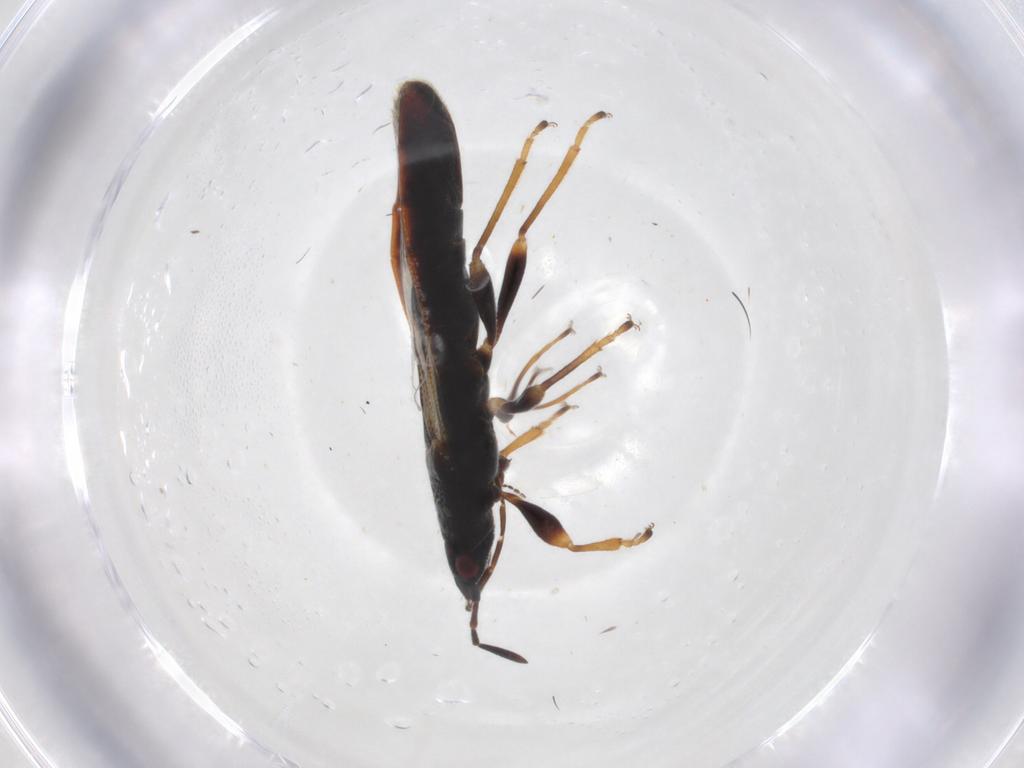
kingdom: Animalia
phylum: Arthropoda
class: Insecta
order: Hemiptera
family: Blissidae
